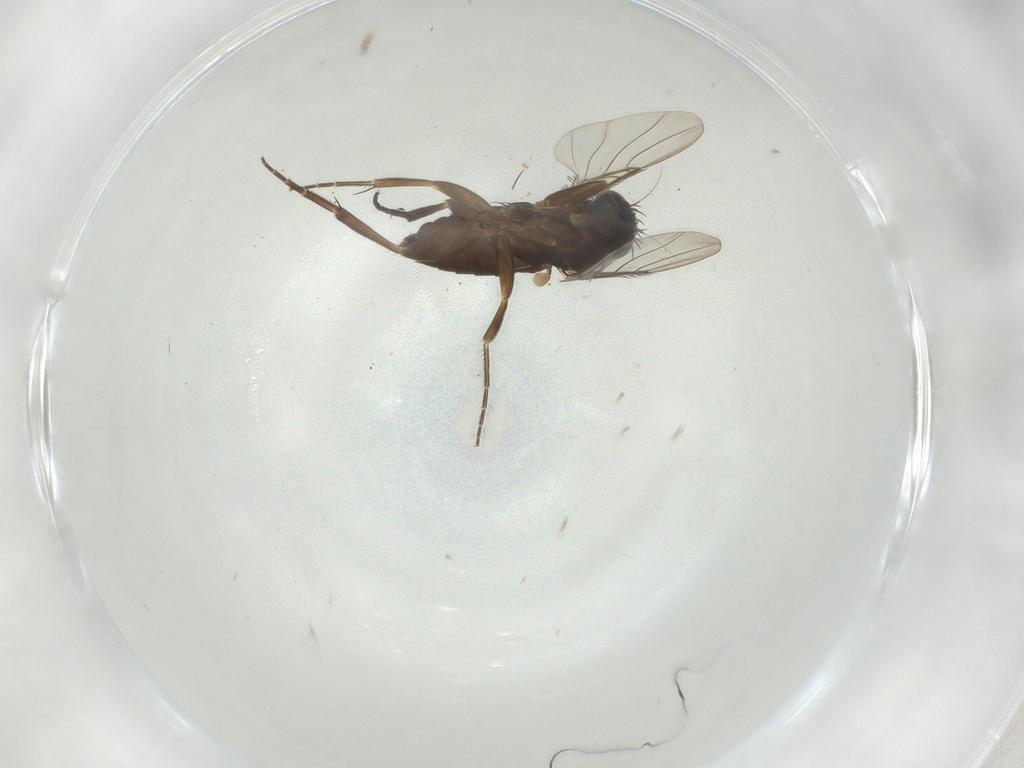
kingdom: Animalia
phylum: Arthropoda
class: Insecta
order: Diptera
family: Phoridae
